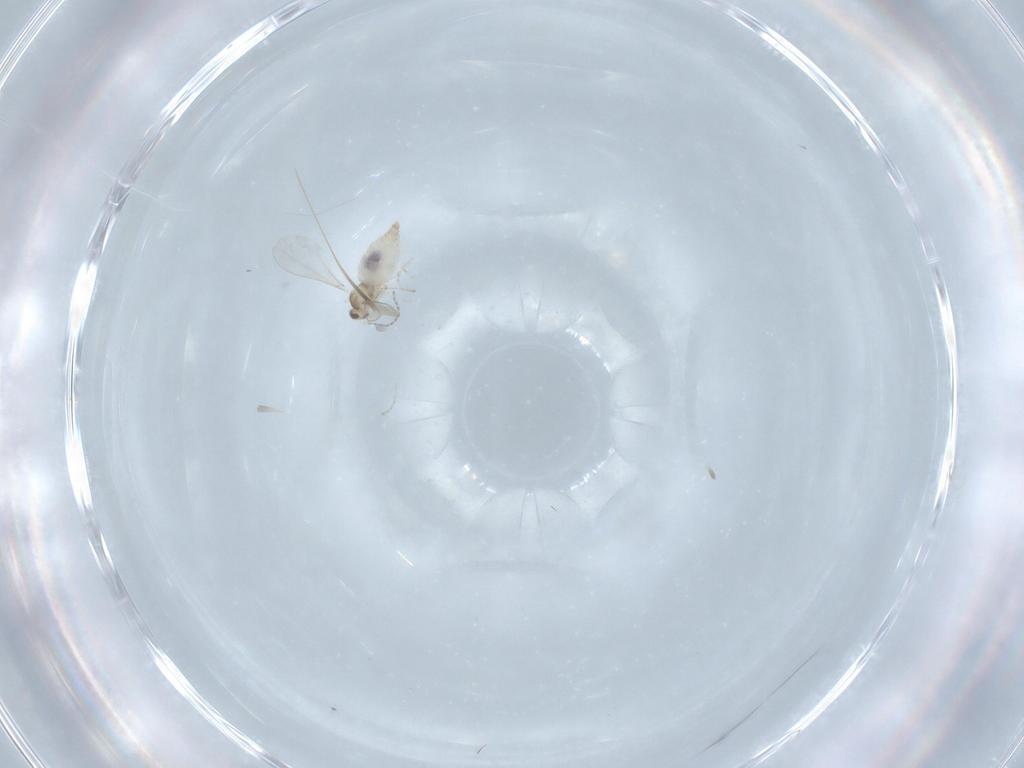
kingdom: Animalia
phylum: Arthropoda
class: Insecta
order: Diptera
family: Cecidomyiidae
